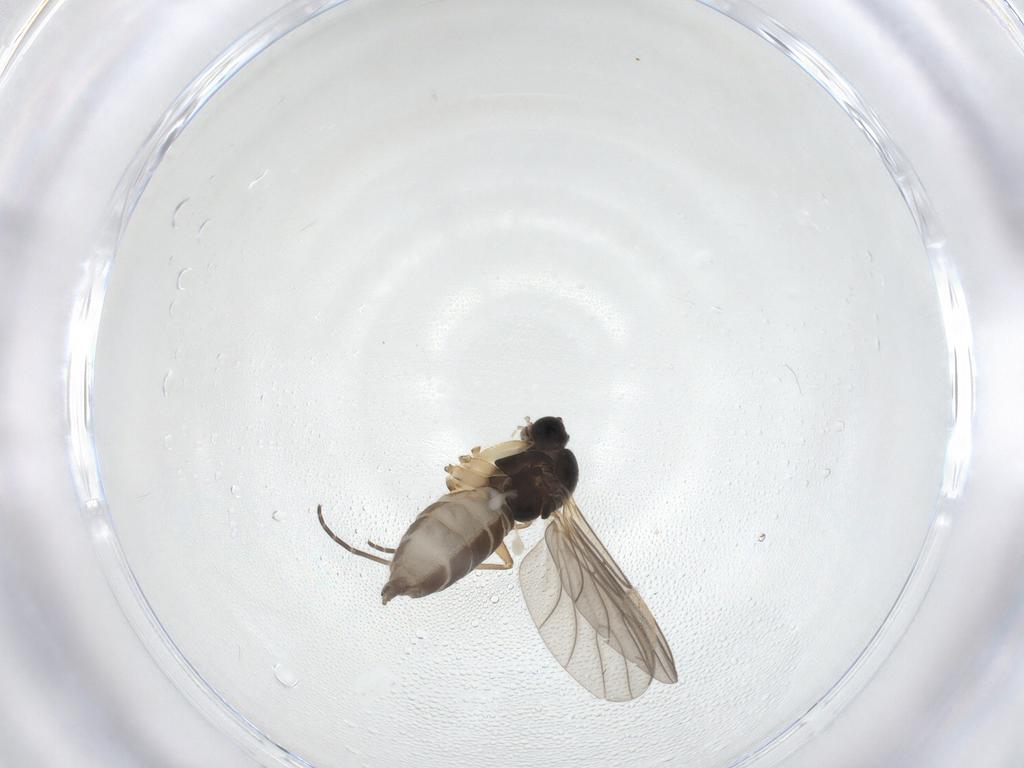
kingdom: Animalia
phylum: Arthropoda
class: Insecta
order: Diptera
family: Sciaridae
